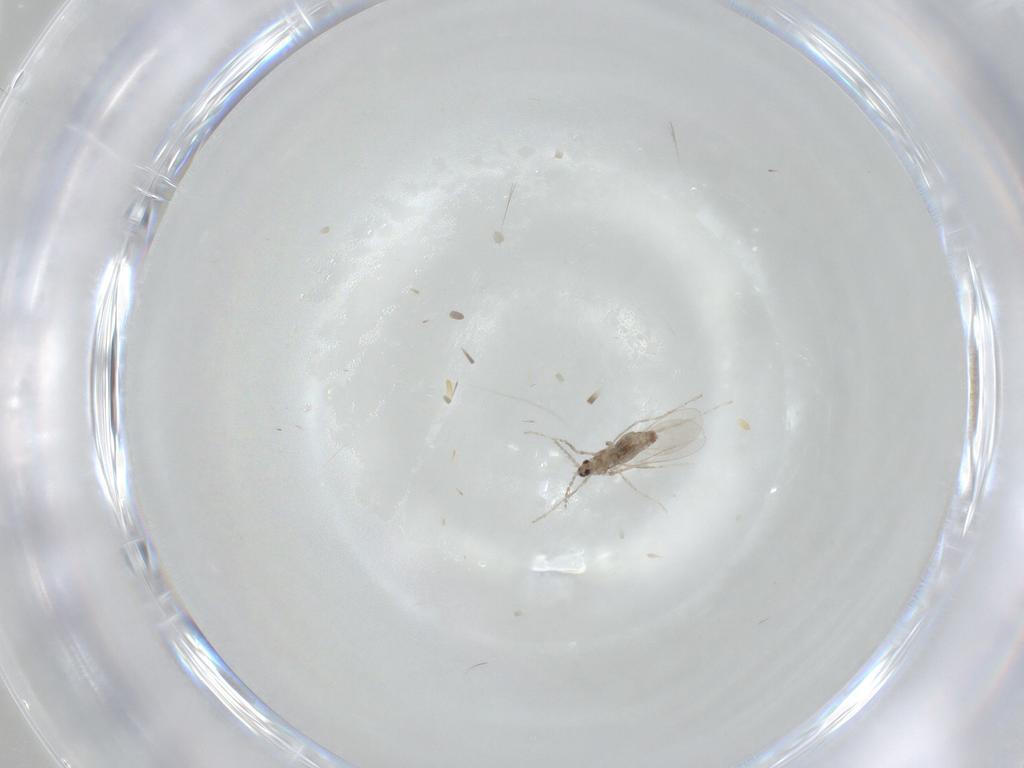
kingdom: Animalia
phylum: Arthropoda
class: Insecta
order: Diptera
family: Cecidomyiidae
